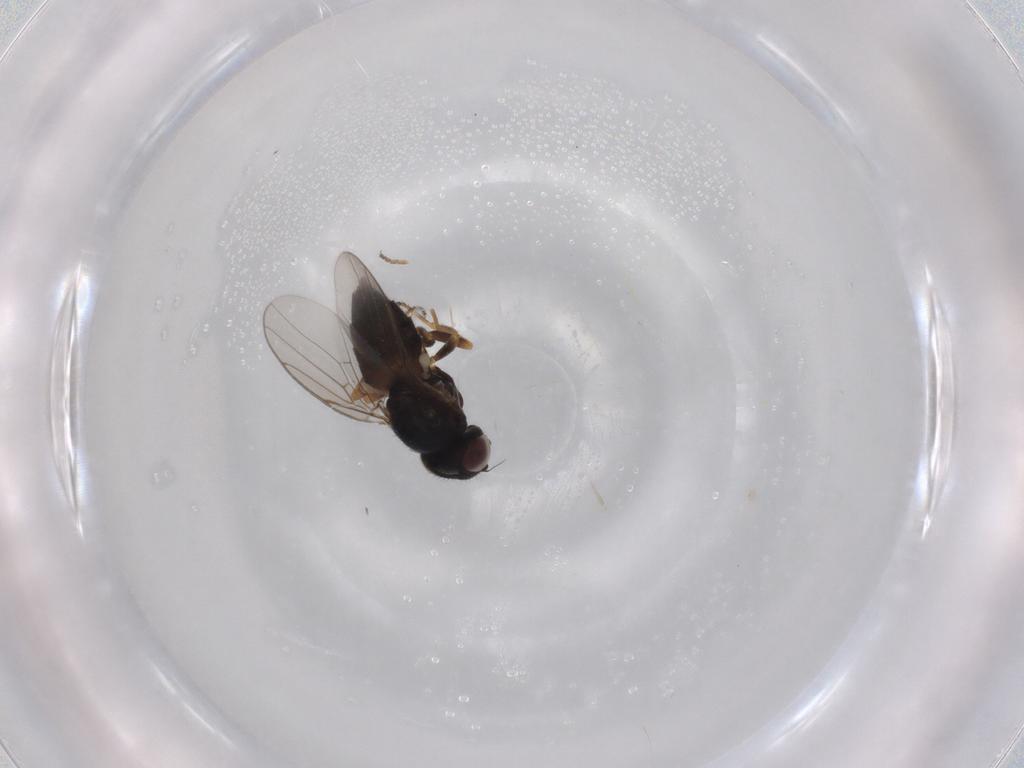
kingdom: Animalia
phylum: Arthropoda
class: Insecta
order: Diptera
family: Chloropidae
